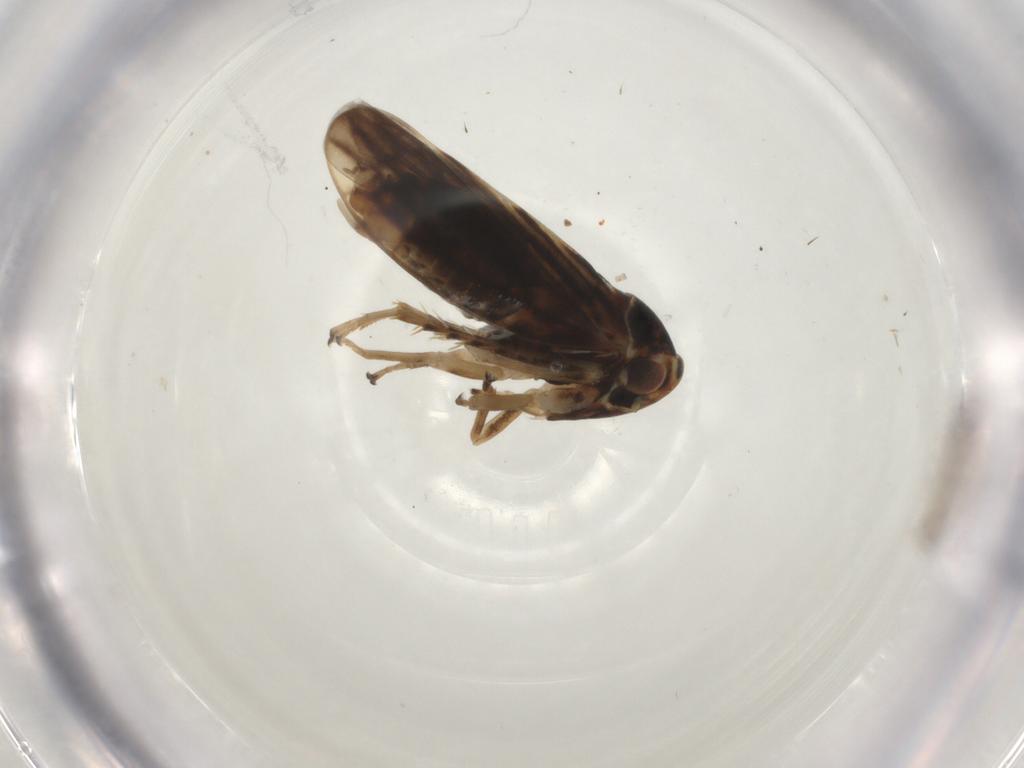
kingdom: Animalia
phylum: Arthropoda
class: Insecta
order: Hemiptera
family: Cicadellidae
